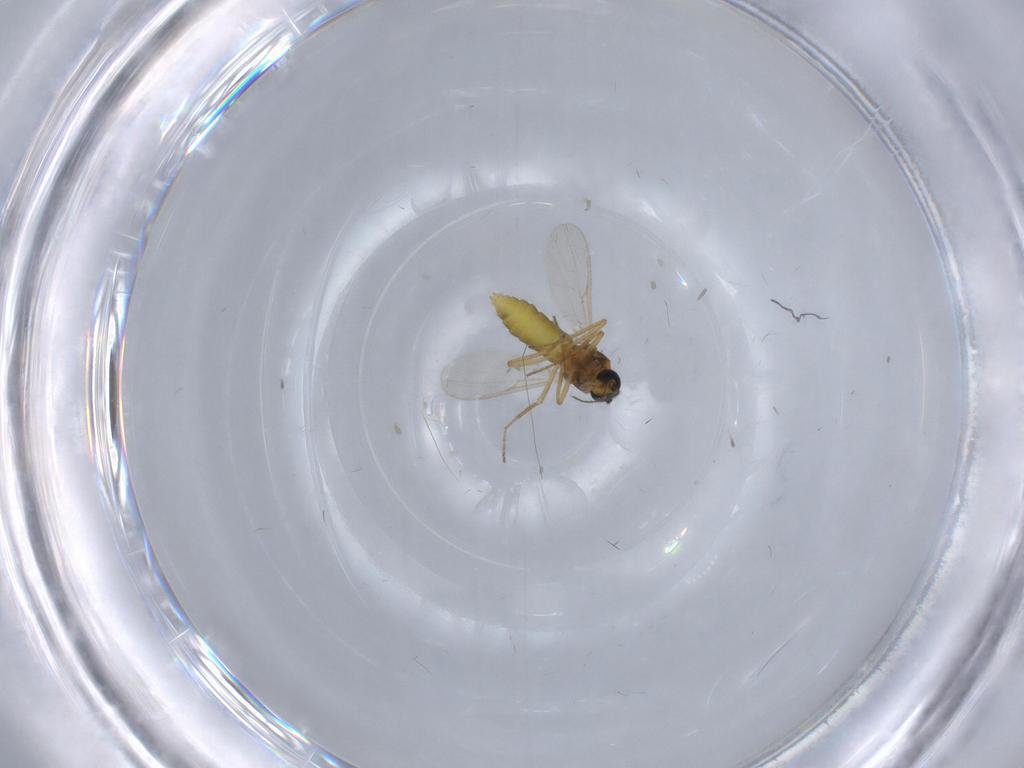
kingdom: Animalia
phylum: Arthropoda
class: Insecta
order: Diptera
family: Ceratopogonidae
